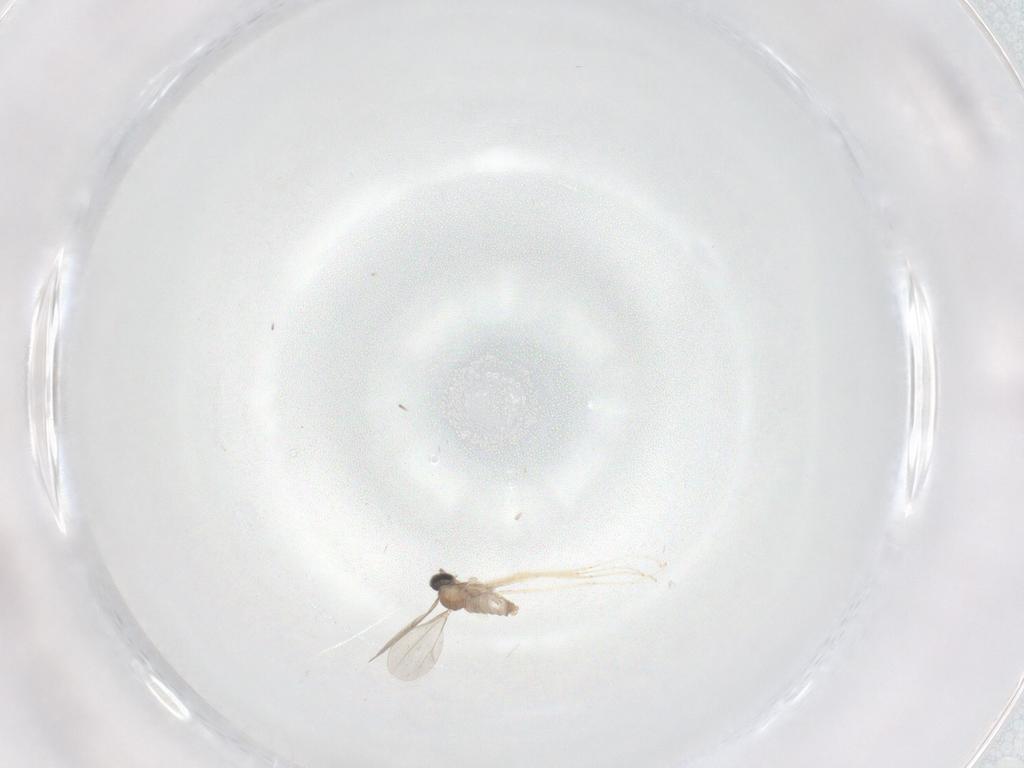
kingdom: Animalia
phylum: Arthropoda
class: Insecta
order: Diptera
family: Cecidomyiidae
